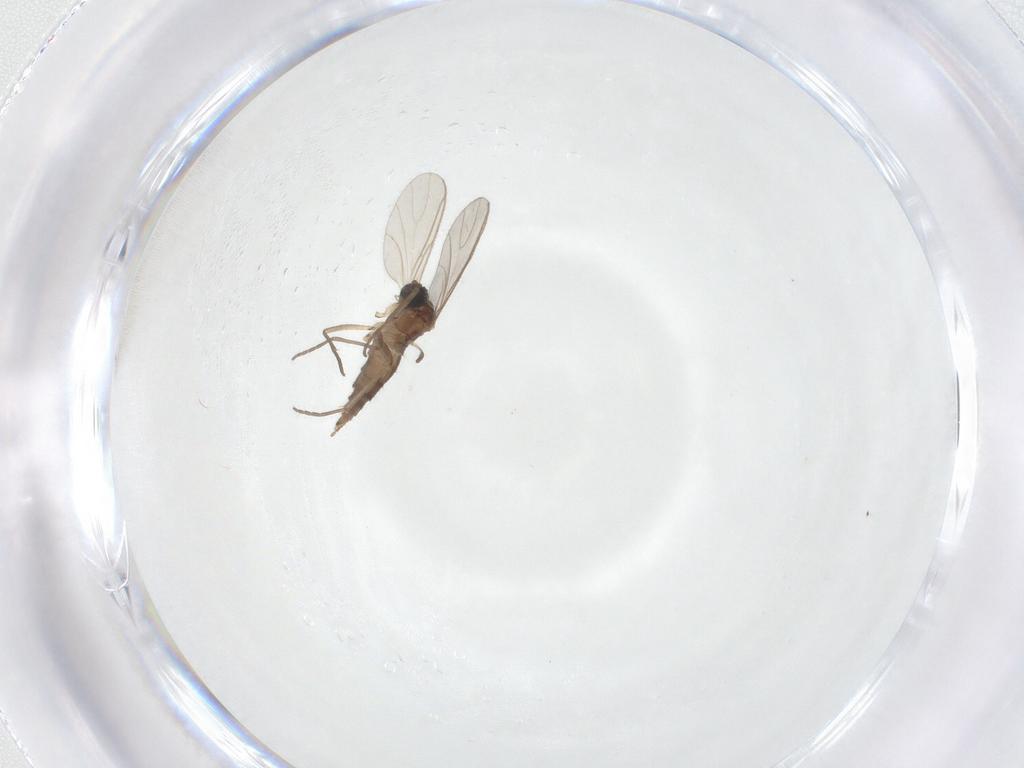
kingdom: Animalia
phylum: Arthropoda
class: Insecta
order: Diptera
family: Sciaridae
